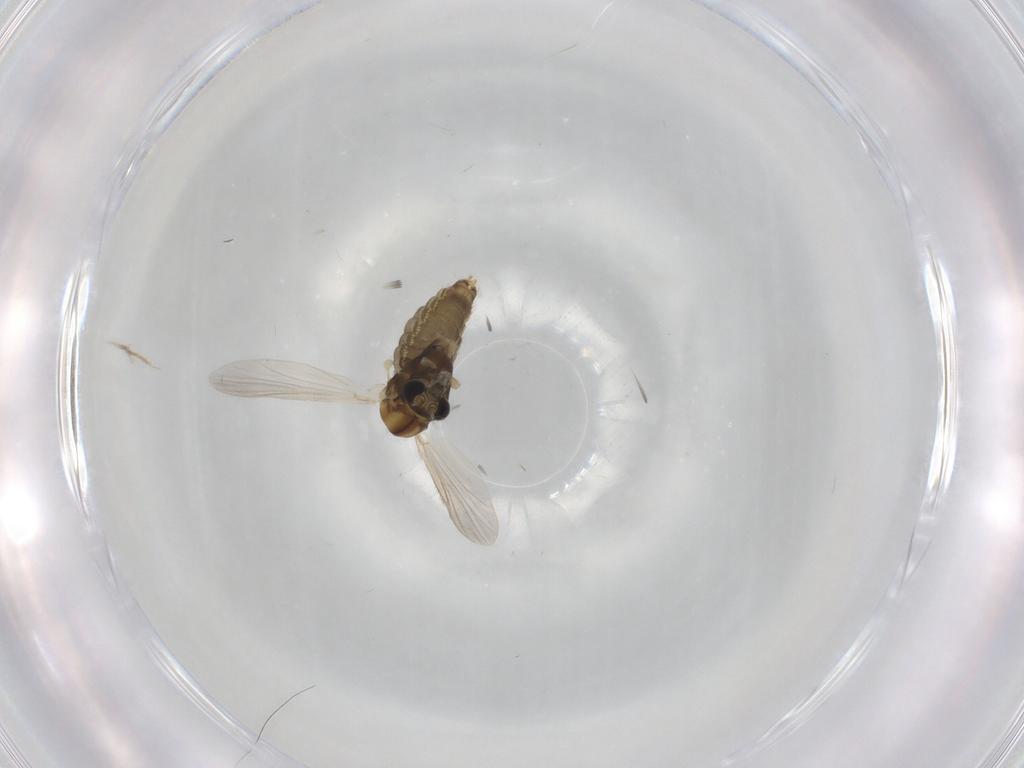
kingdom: Animalia
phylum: Arthropoda
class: Insecta
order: Diptera
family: Chironomidae
